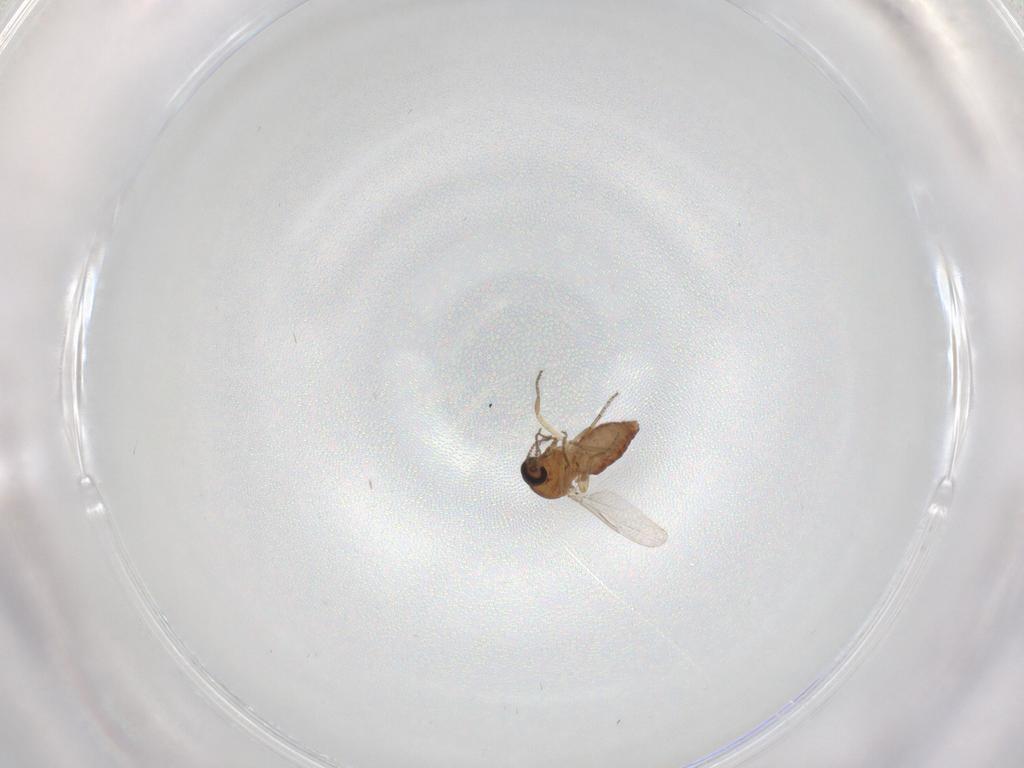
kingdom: Animalia
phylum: Arthropoda
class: Insecta
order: Diptera
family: Ceratopogonidae
